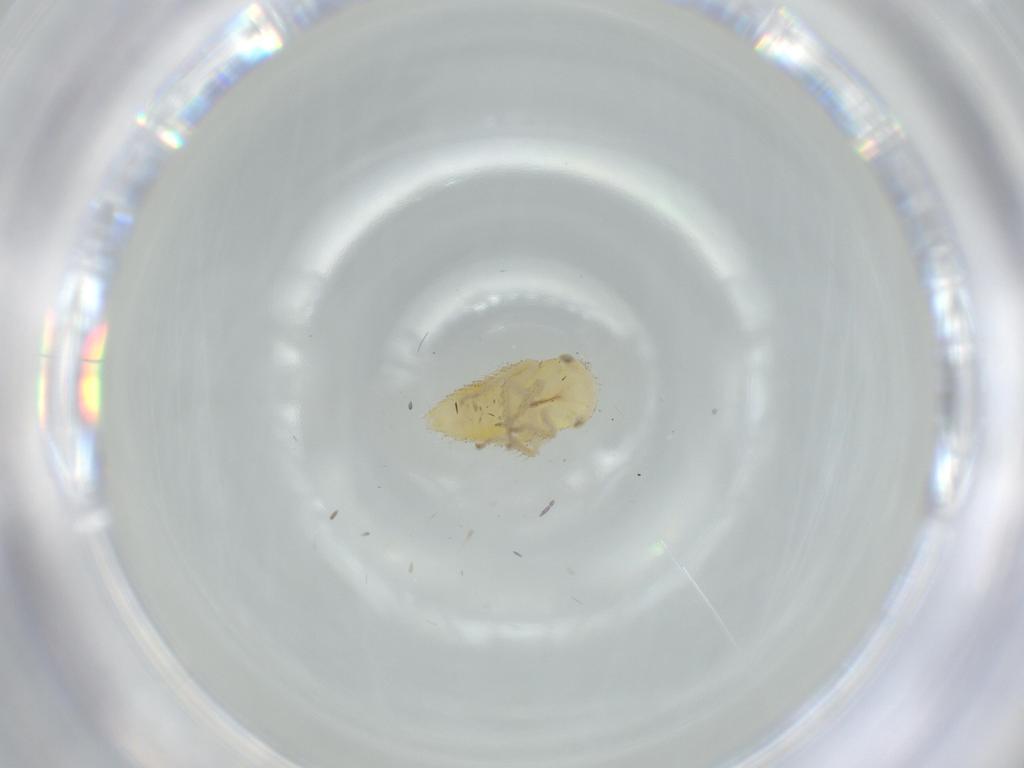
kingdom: Animalia
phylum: Arthropoda
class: Insecta
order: Hemiptera
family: Cicadellidae
